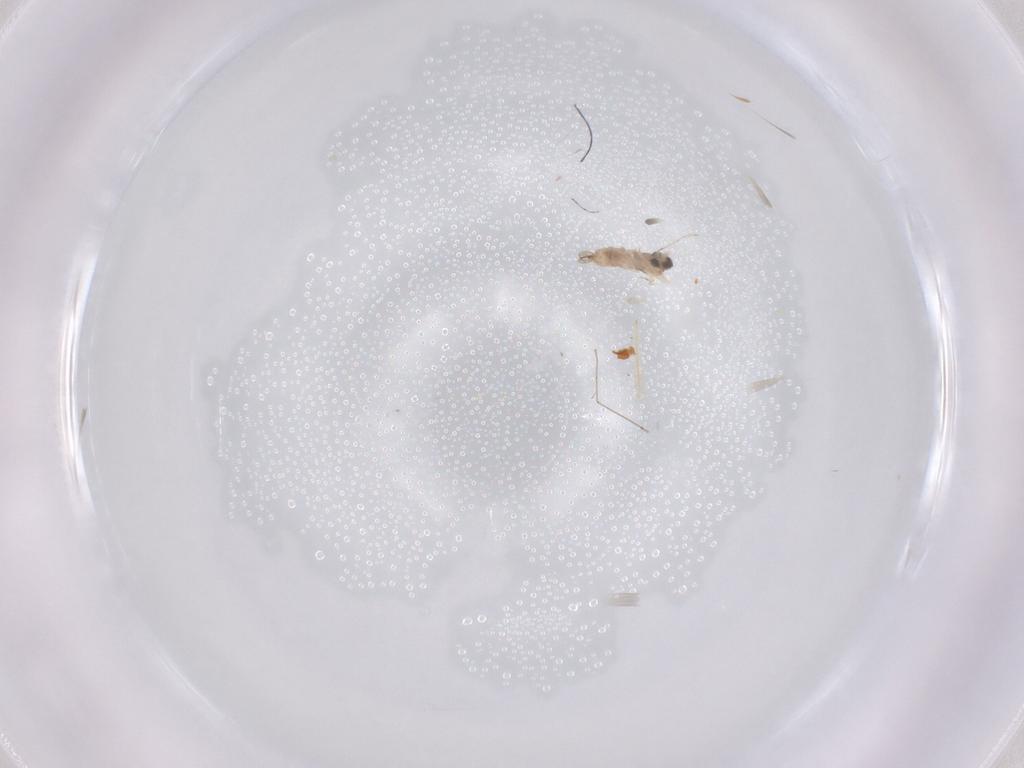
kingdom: Animalia
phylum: Arthropoda
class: Insecta
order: Diptera
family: Cecidomyiidae
